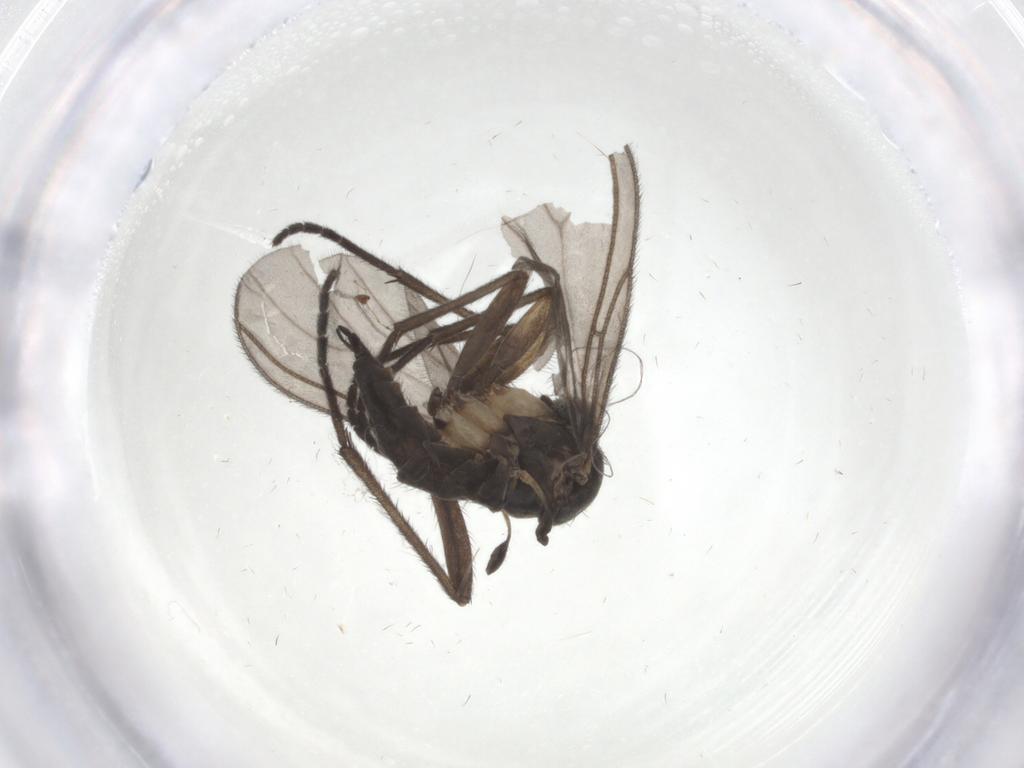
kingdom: Animalia
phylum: Arthropoda
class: Insecta
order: Diptera
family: Sciaridae
